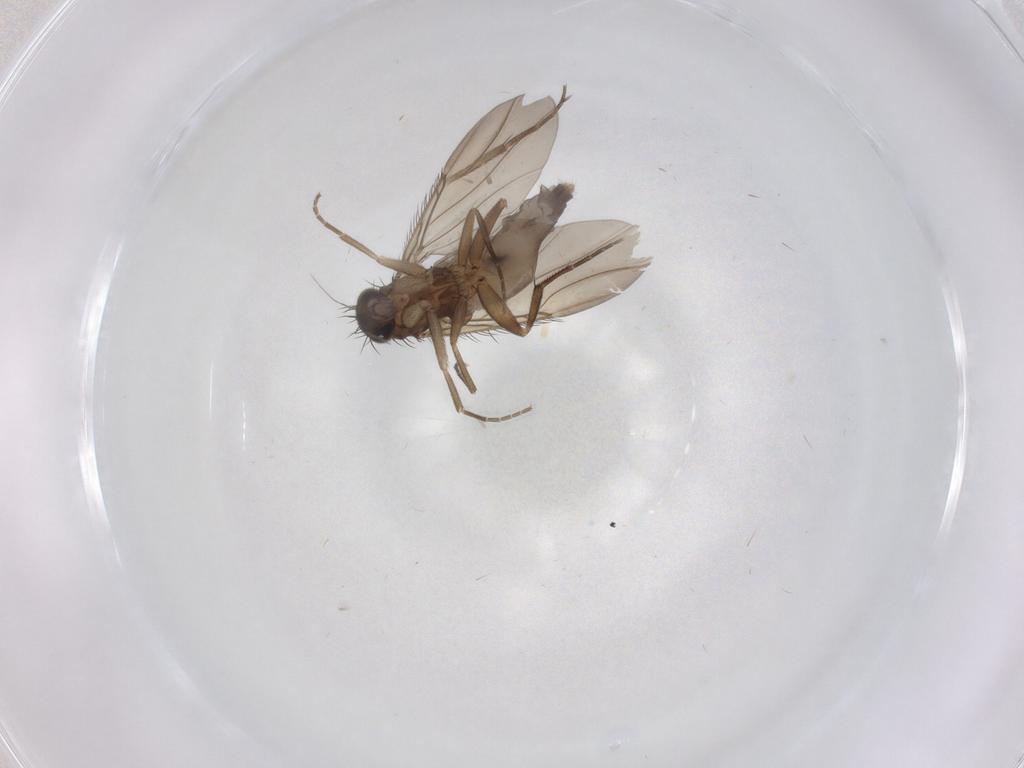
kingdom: Animalia
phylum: Arthropoda
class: Insecta
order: Diptera
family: Phoridae
